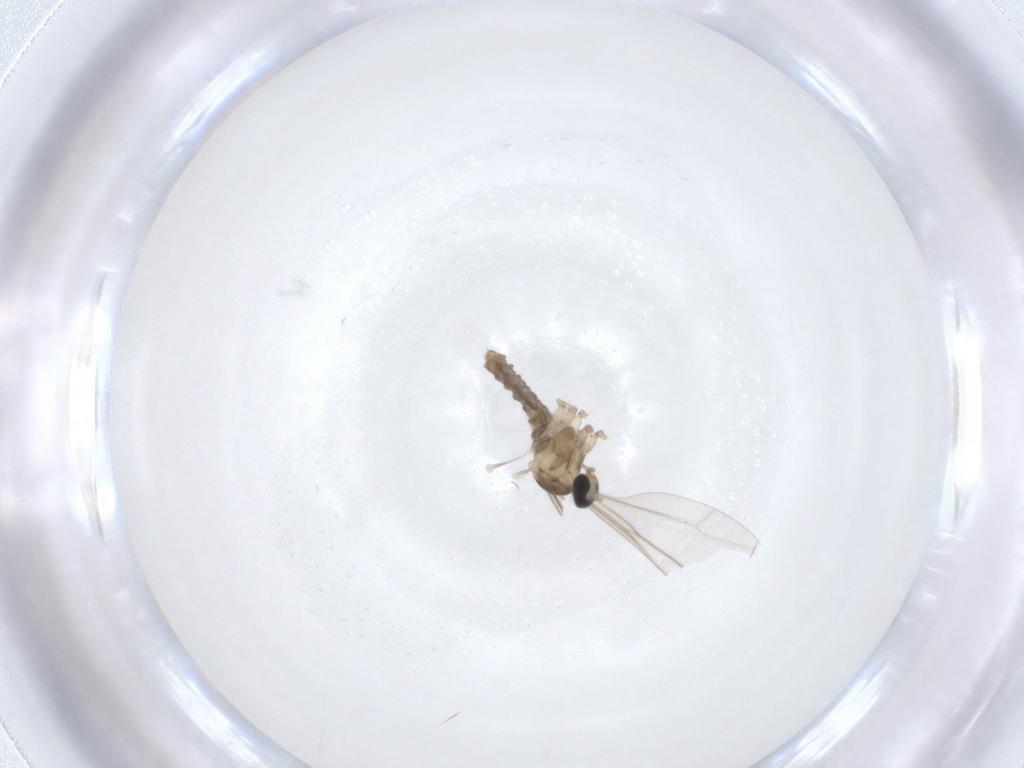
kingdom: Animalia
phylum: Arthropoda
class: Insecta
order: Diptera
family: Cecidomyiidae
